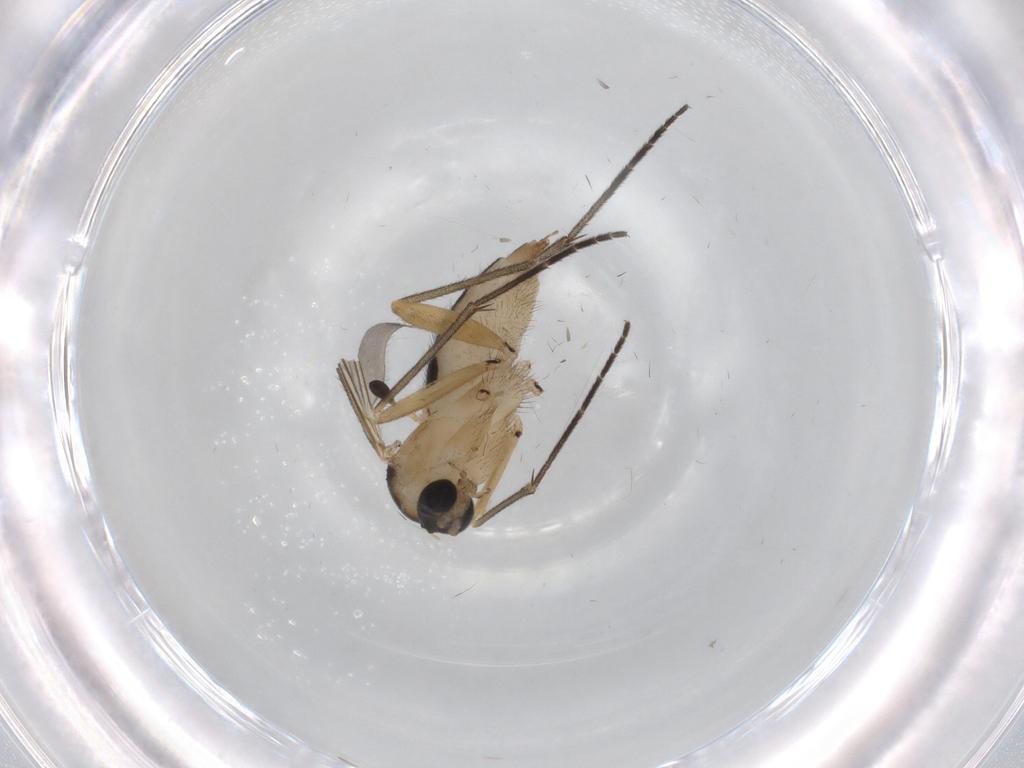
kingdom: Animalia
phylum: Arthropoda
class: Insecta
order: Diptera
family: Sciaridae
